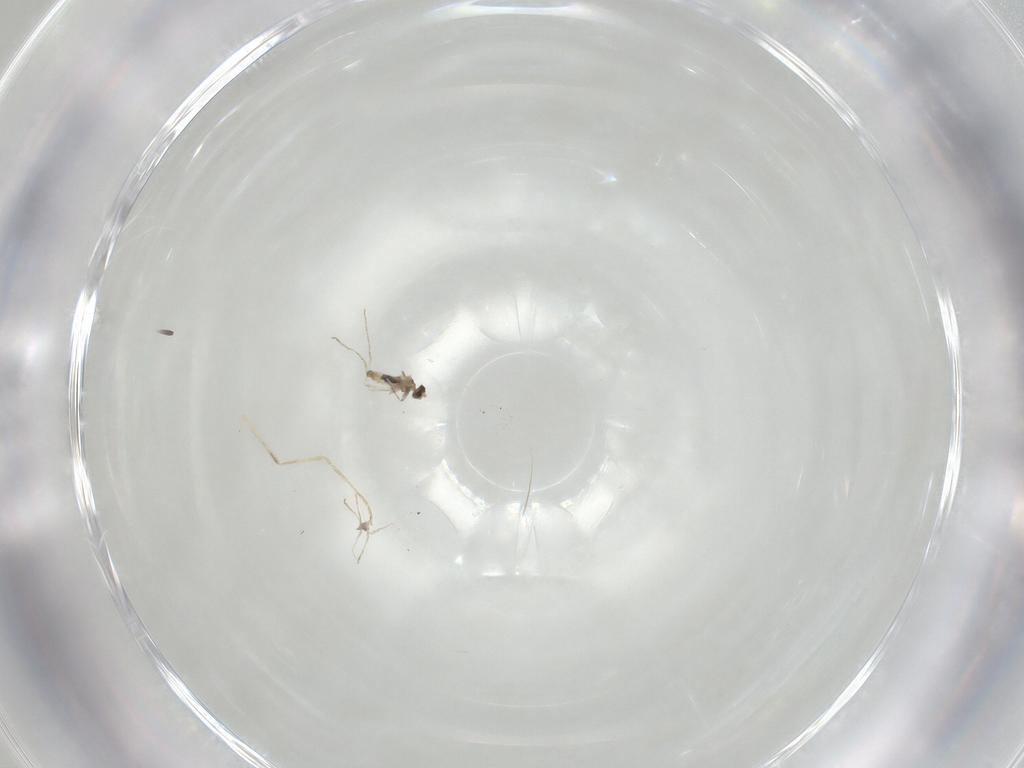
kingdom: Animalia
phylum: Arthropoda
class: Insecta
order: Diptera
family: Cecidomyiidae
